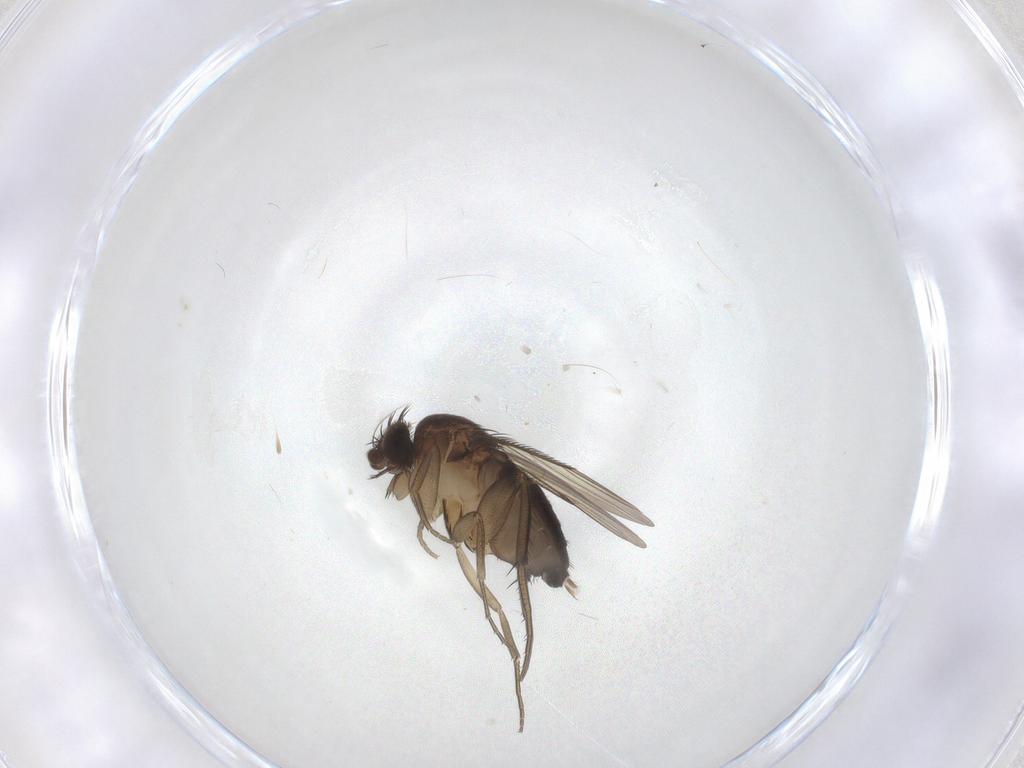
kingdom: Animalia
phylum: Arthropoda
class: Insecta
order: Diptera
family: Phoridae
